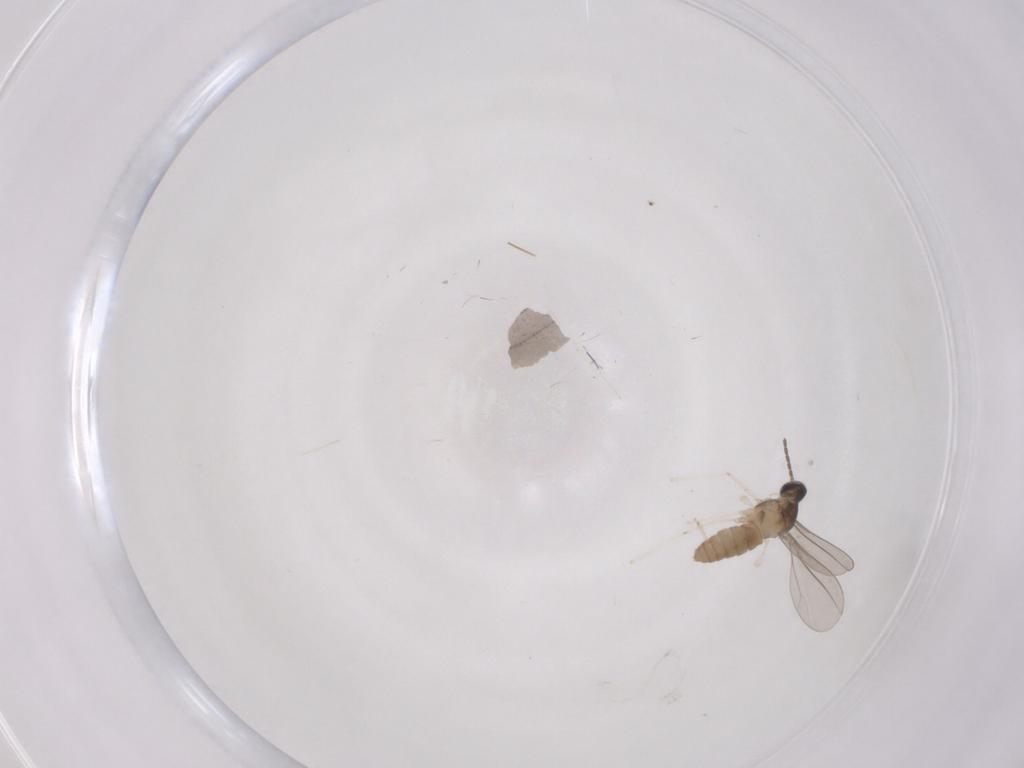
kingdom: Animalia
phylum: Arthropoda
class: Insecta
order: Diptera
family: Cecidomyiidae
